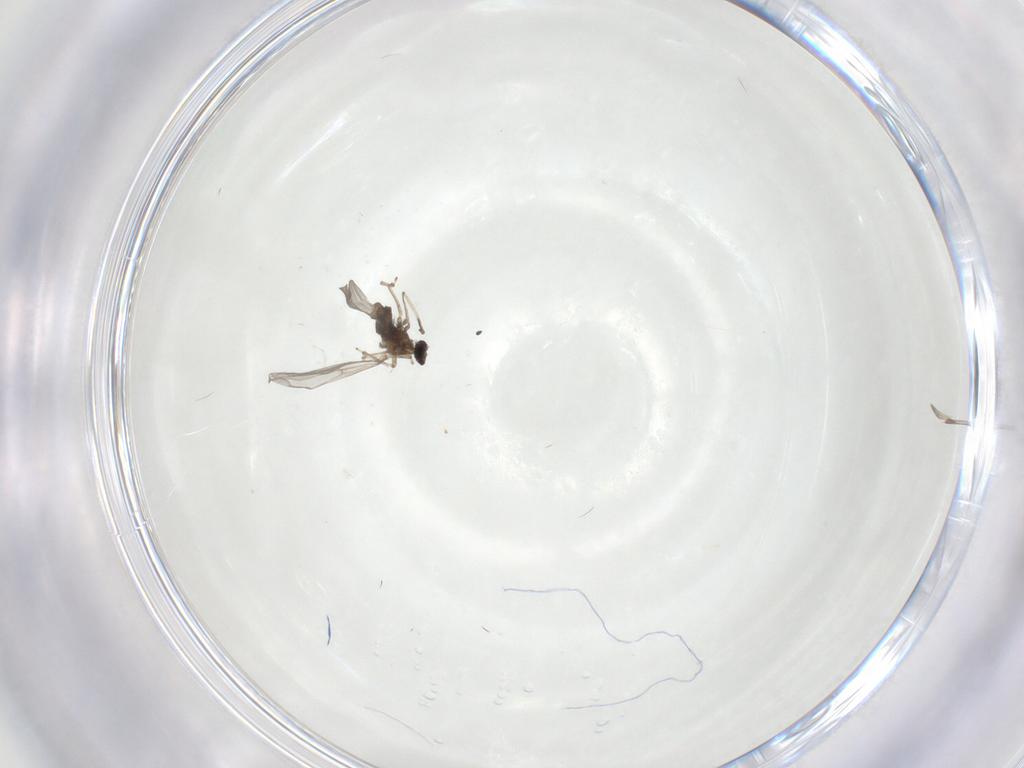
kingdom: Animalia
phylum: Arthropoda
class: Insecta
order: Diptera
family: Cecidomyiidae
